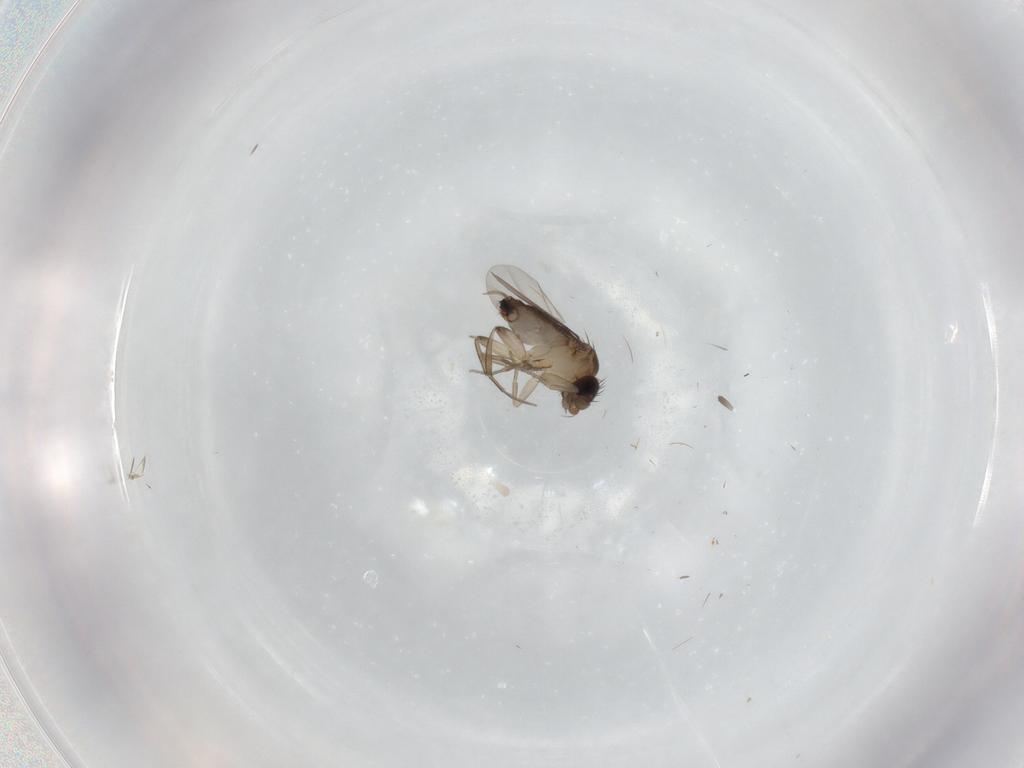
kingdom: Animalia
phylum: Arthropoda
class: Insecta
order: Diptera
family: Phoridae
